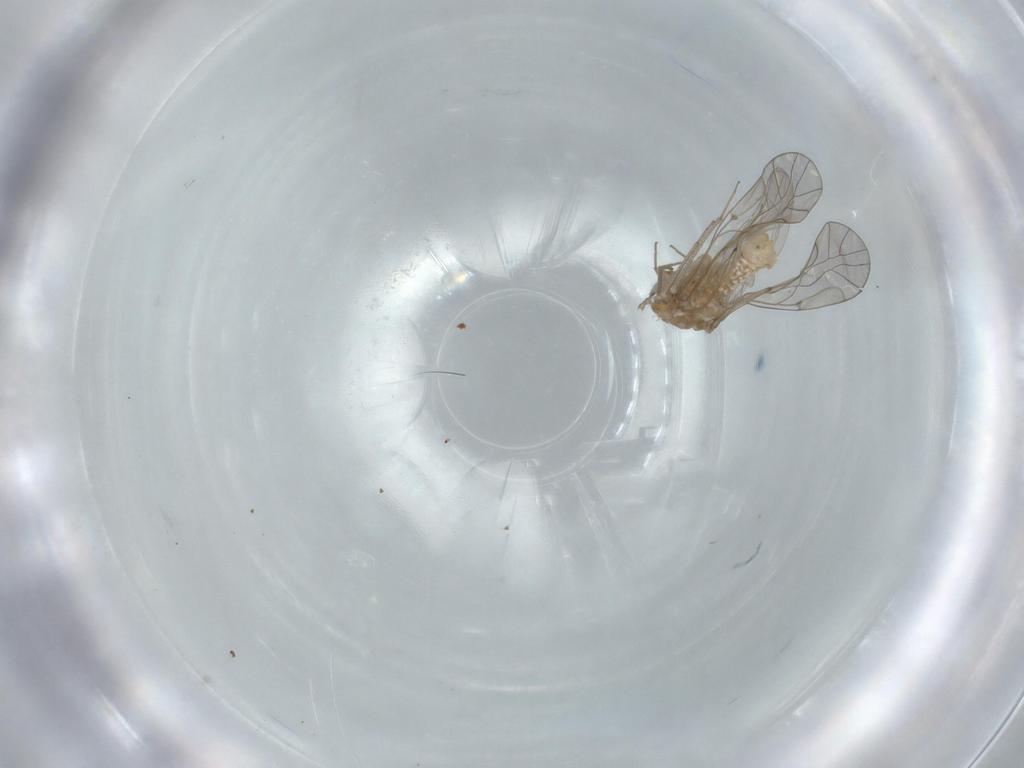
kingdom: Animalia
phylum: Arthropoda
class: Insecta
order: Psocodea
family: Lachesillidae
